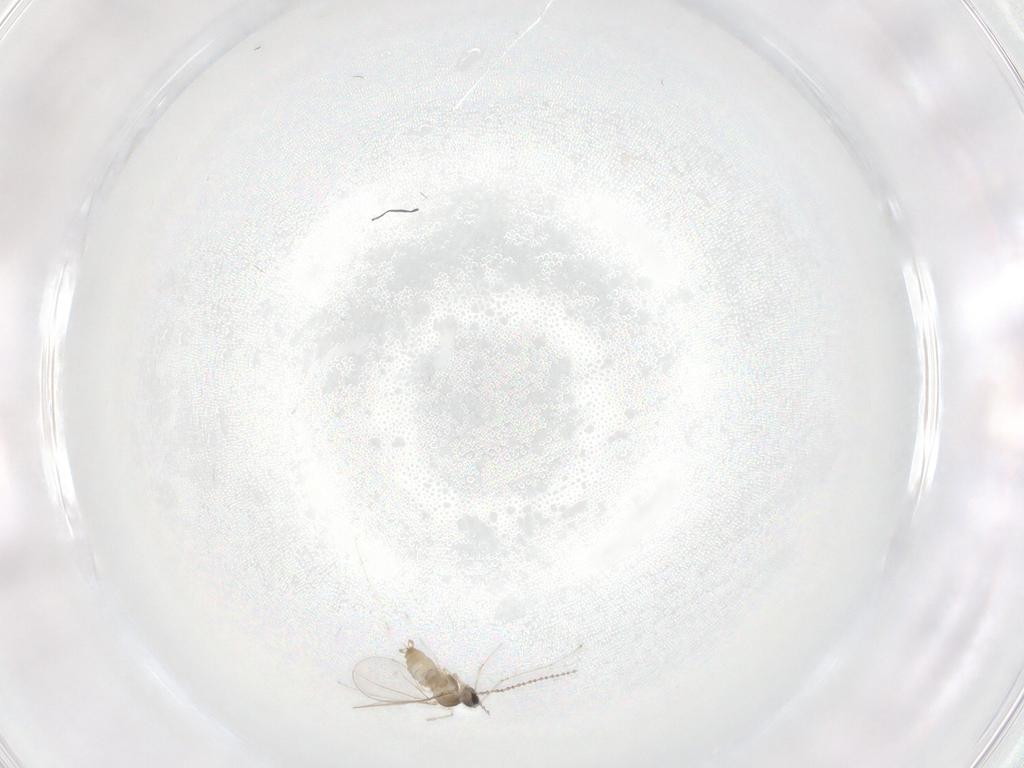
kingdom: Animalia
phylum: Arthropoda
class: Insecta
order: Diptera
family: Cecidomyiidae
